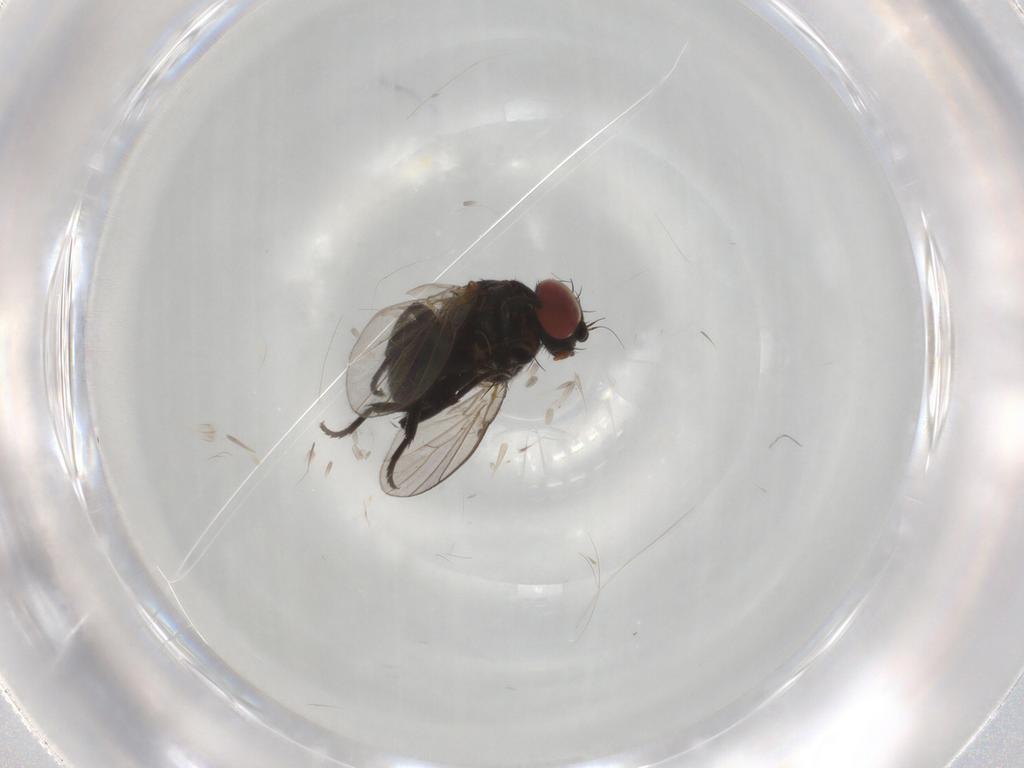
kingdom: Animalia
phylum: Arthropoda
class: Insecta
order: Diptera
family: Agromyzidae
